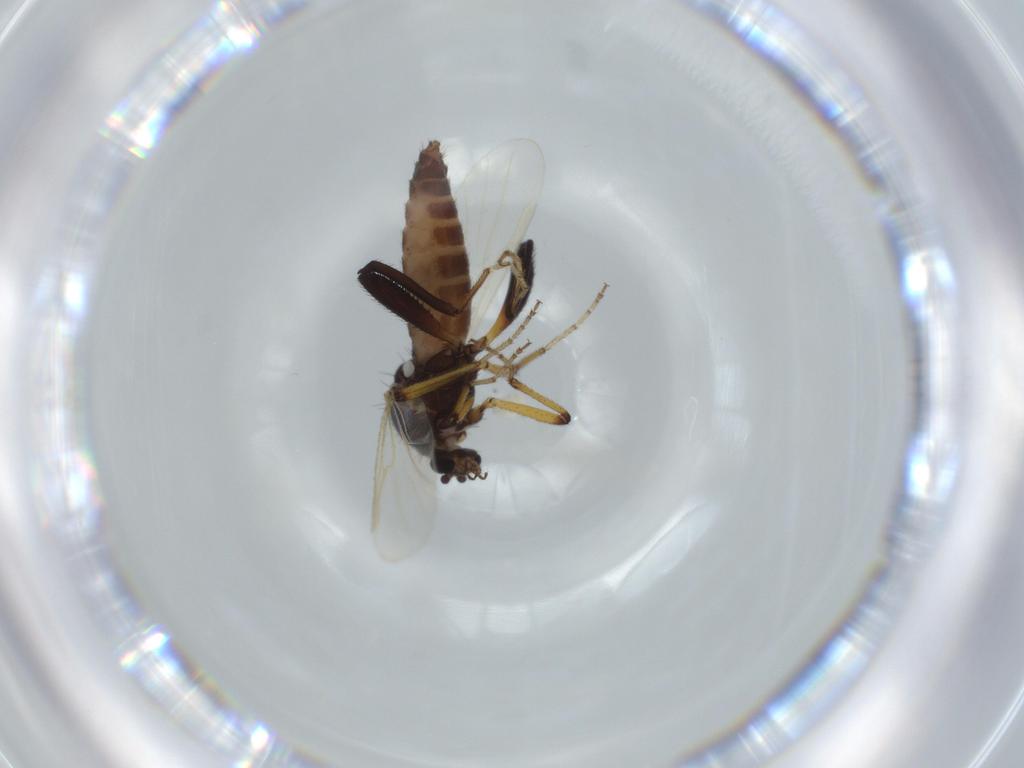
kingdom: Animalia
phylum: Arthropoda
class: Insecta
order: Diptera
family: Ceratopogonidae
